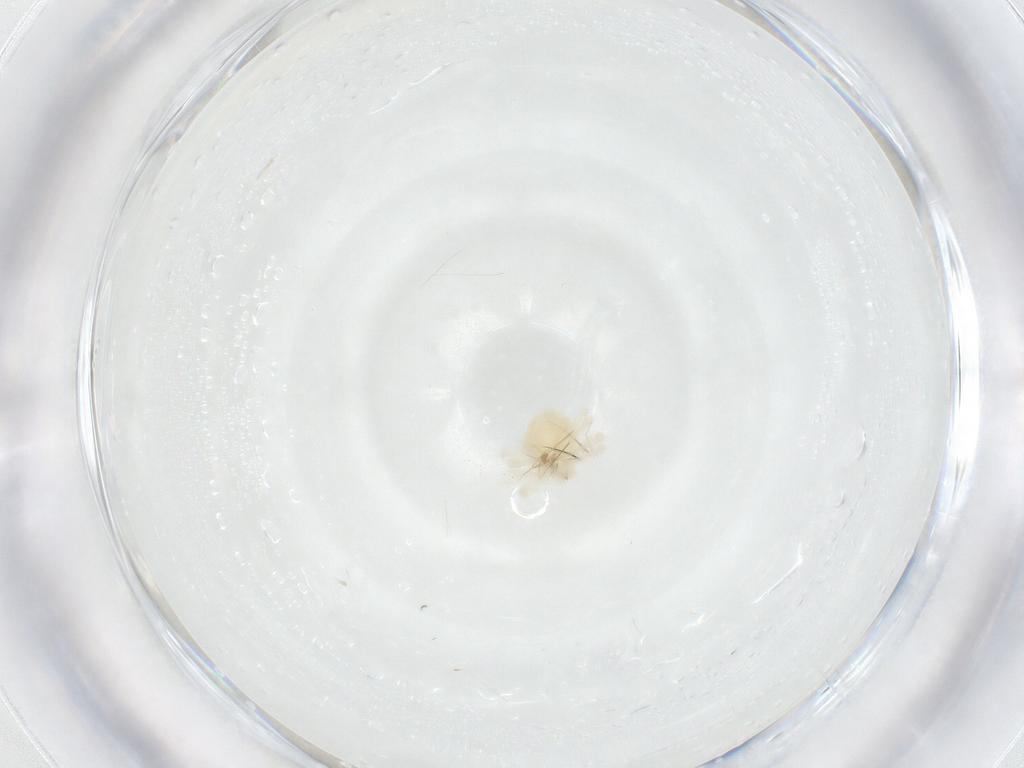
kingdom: Animalia
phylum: Arthropoda
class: Arachnida
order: Trombidiformes
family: Anystidae
